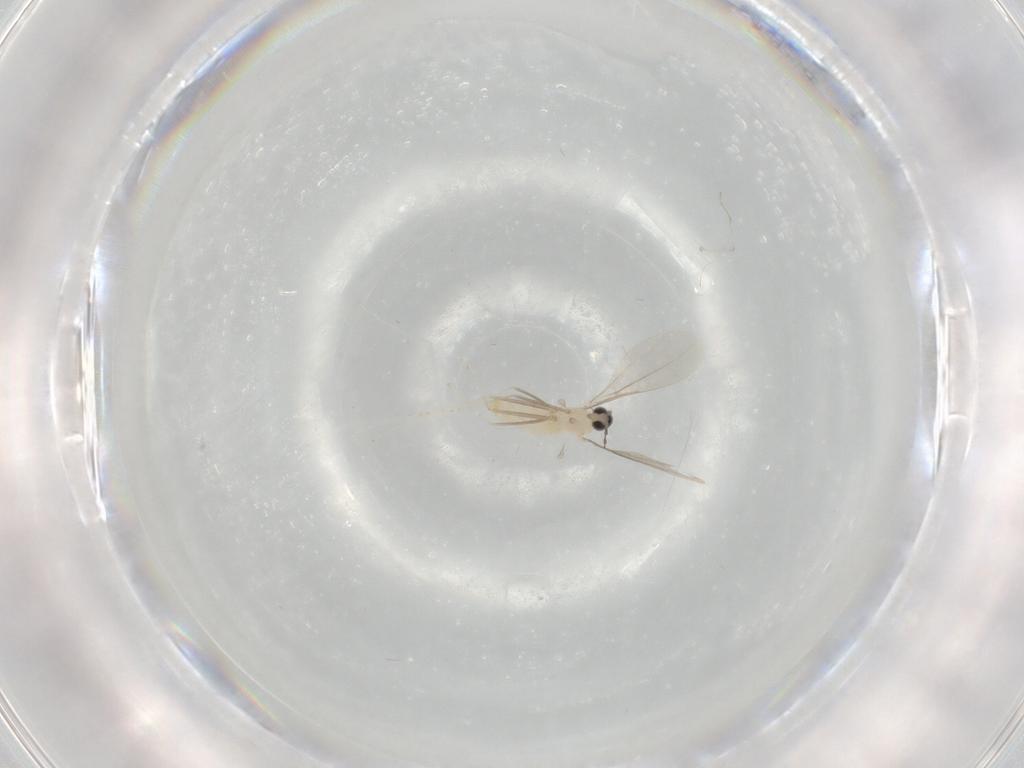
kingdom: Animalia
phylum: Arthropoda
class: Insecta
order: Diptera
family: Cecidomyiidae
